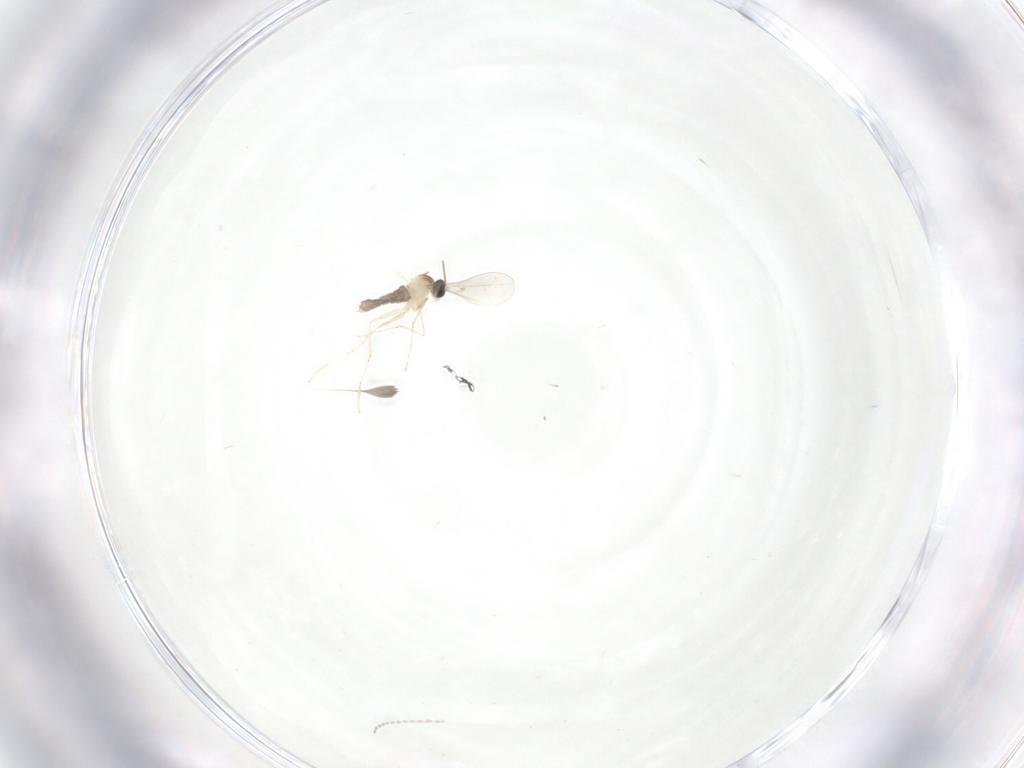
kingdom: Animalia
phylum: Arthropoda
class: Insecta
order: Diptera
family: Cecidomyiidae
